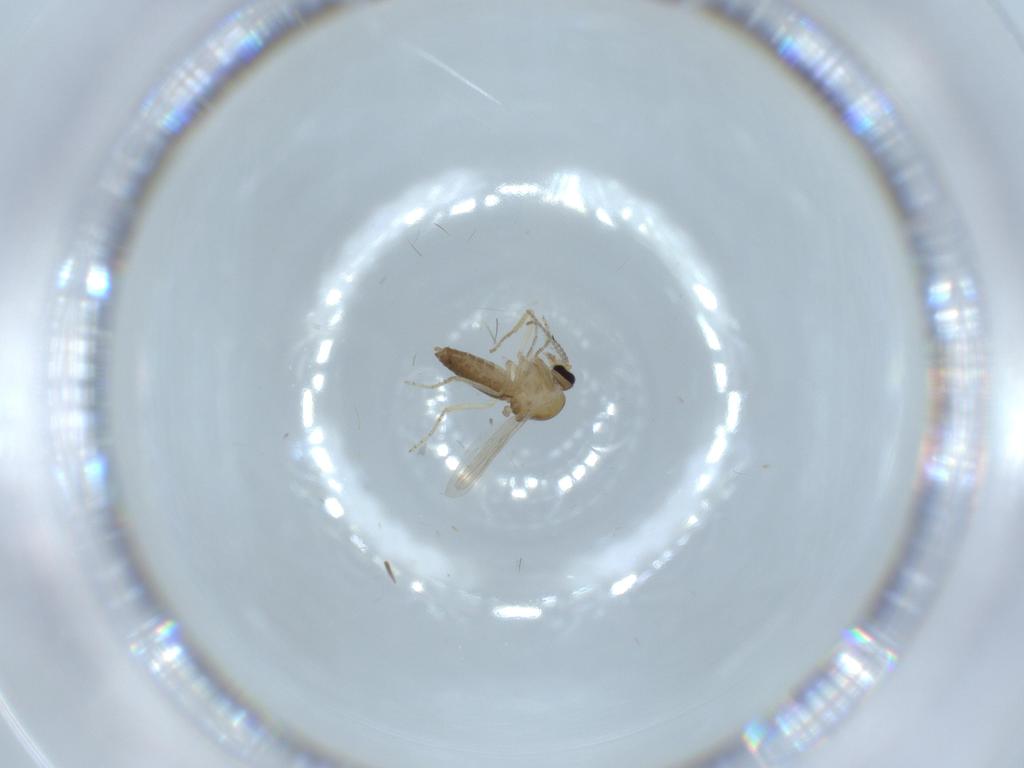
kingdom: Animalia
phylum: Arthropoda
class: Insecta
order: Diptera
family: Ceratopogonidae
